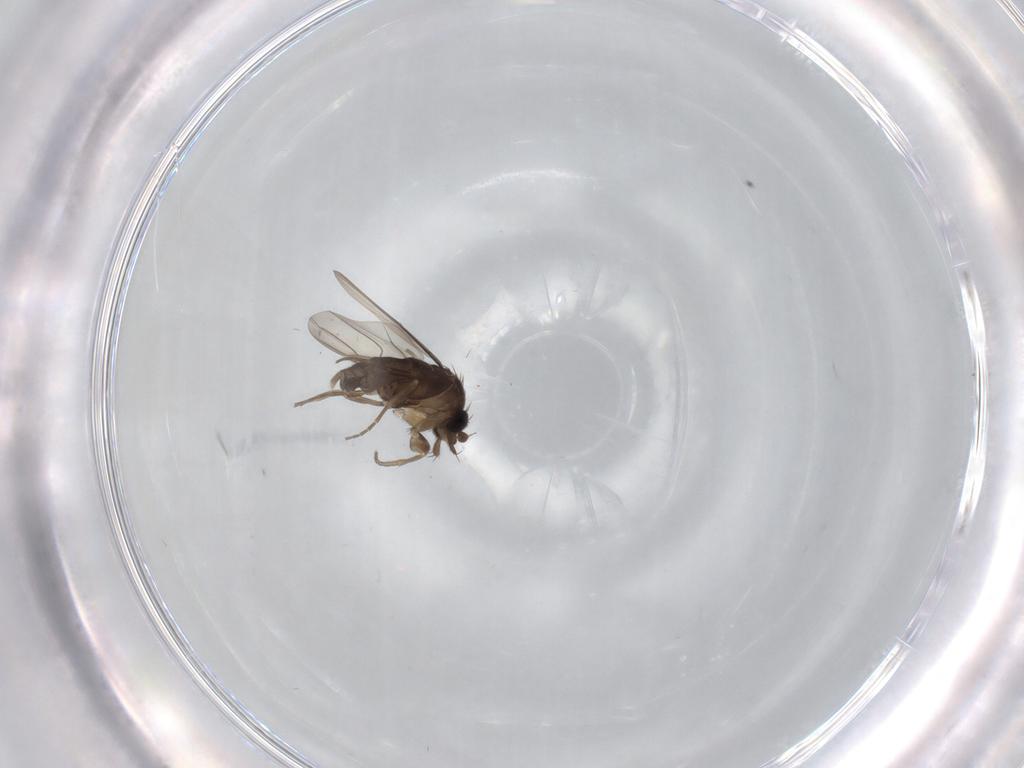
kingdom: Animalia
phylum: Arthropoda
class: Insecta
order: Diptera
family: Phoridae
